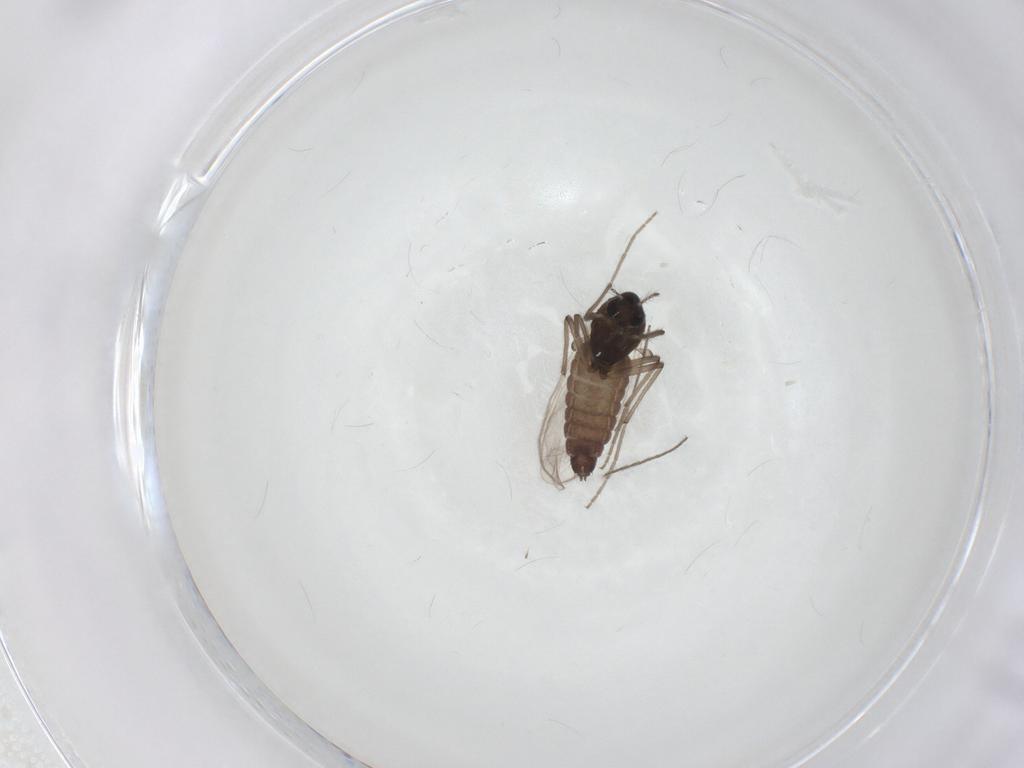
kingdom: Animalia
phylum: Arthropoda
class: Insecta
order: Diptera
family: Chironomidae
